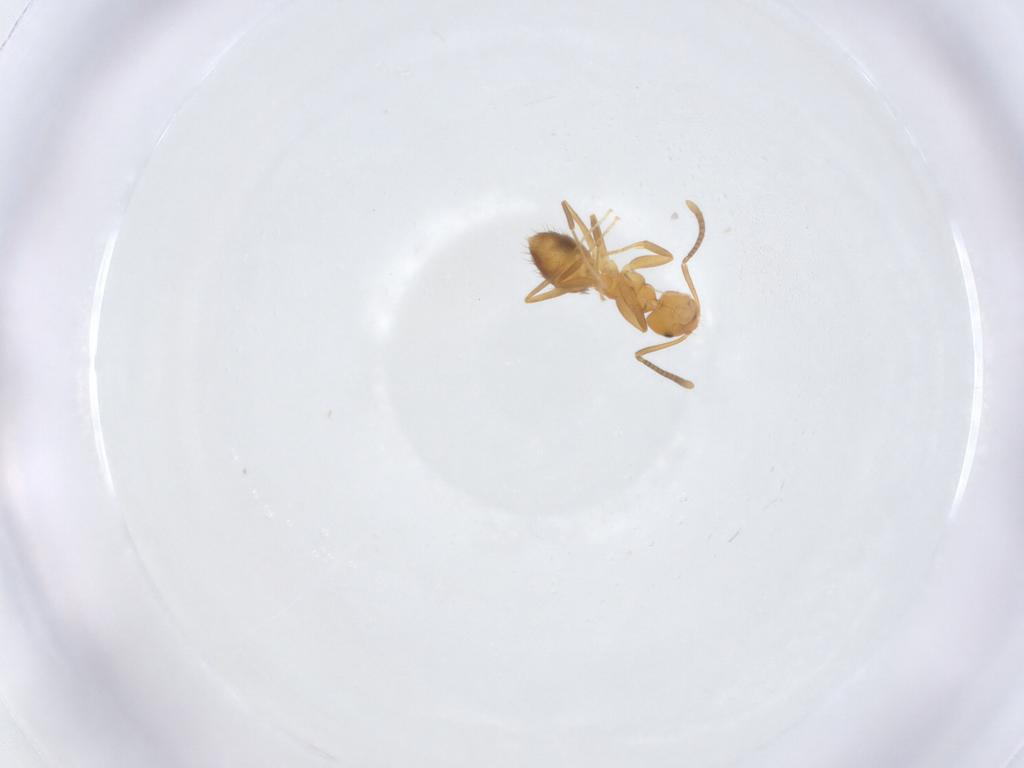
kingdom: Animalia
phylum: Arthropoda
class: Insecta
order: Hymenoptera
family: Formicidae
